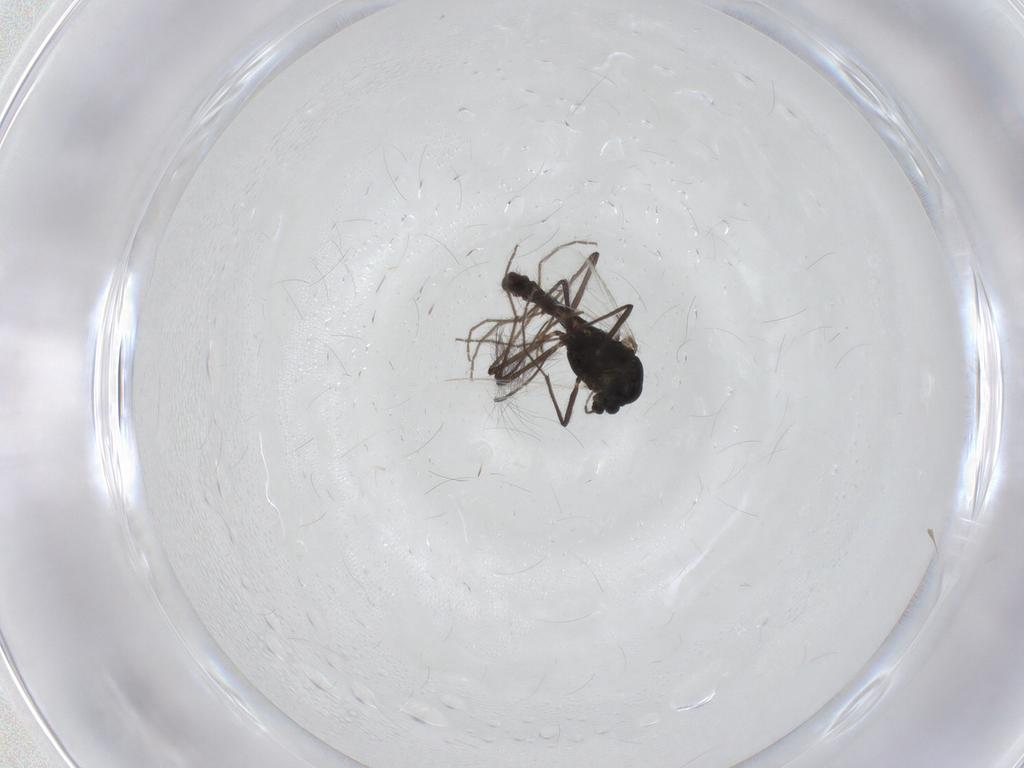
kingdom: Animalia
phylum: Arthropoda
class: Insecta
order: Diptera
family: Chironomidae
